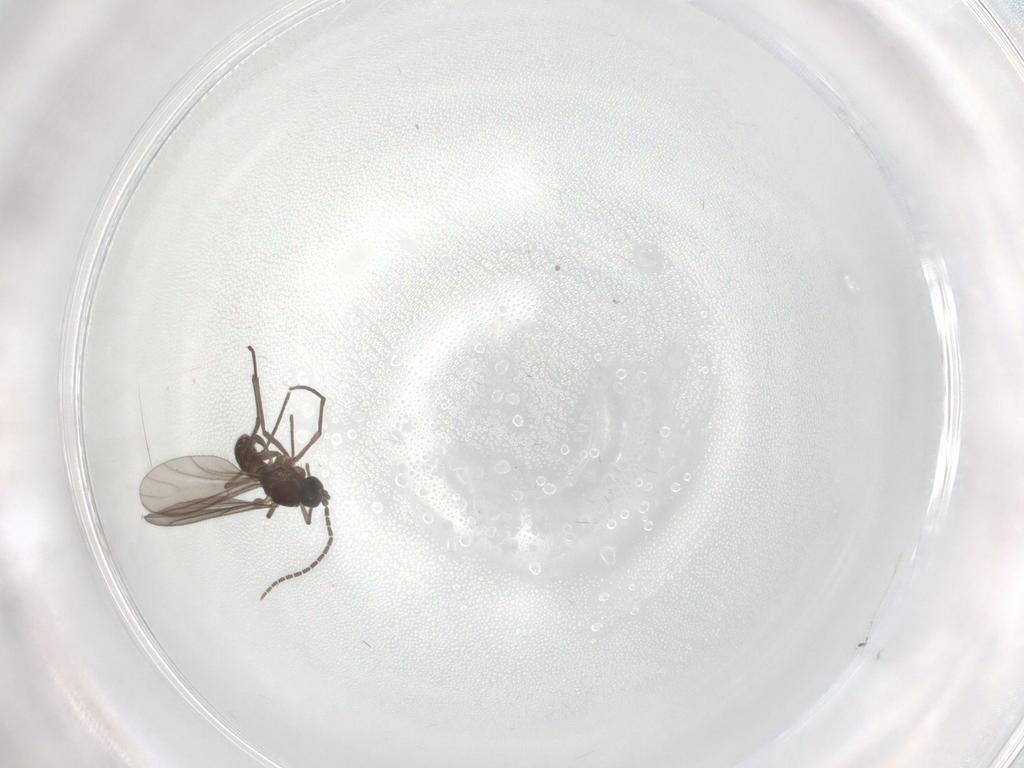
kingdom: Animalia
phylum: Arthropoda
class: Insecta
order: Diptera
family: Sciaridae
